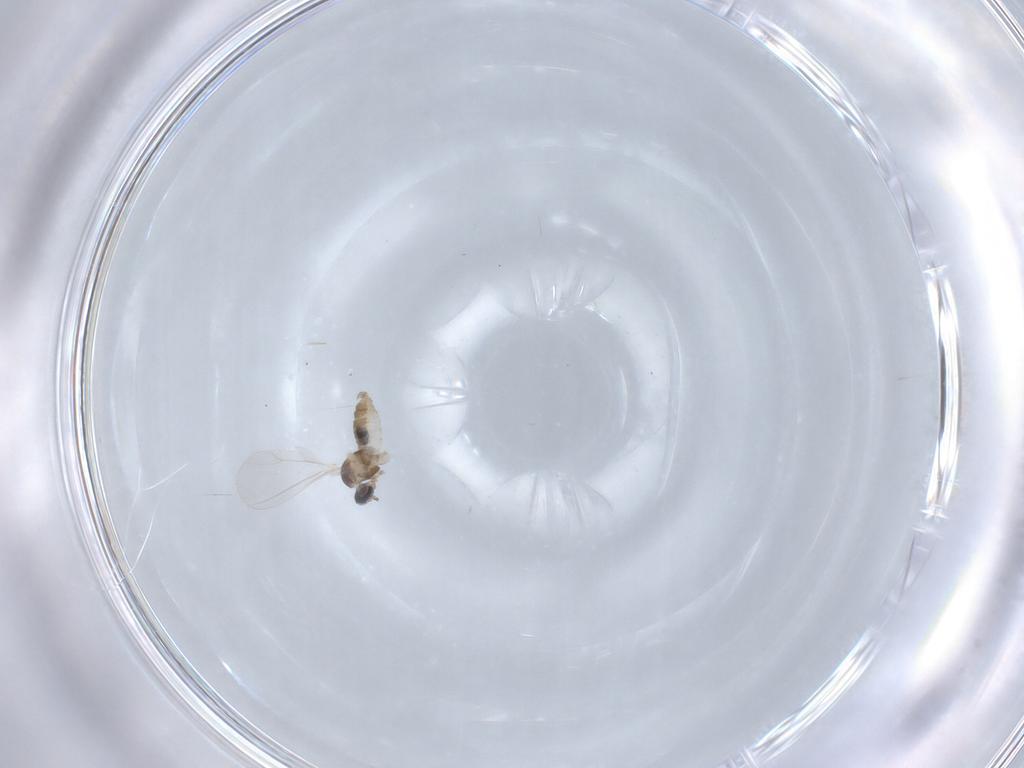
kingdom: Animalia
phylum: Arthropoda
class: Insecta
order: Diptera
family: Cecidomyiidae
